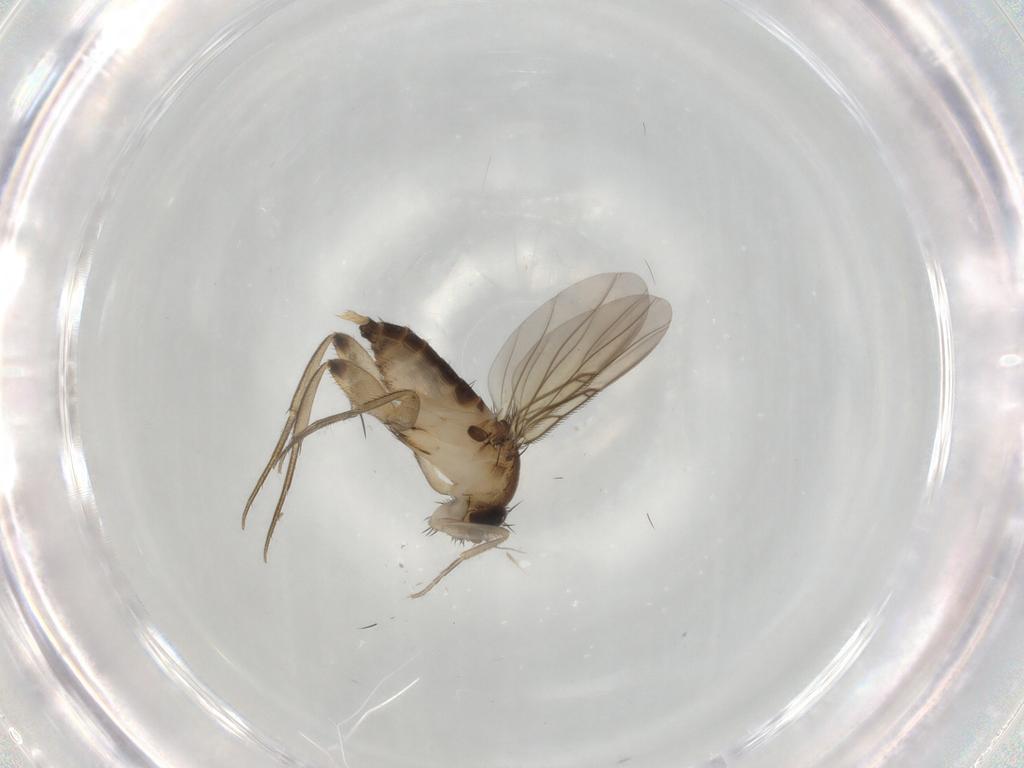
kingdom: Animalia
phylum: Arthropoda
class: Insecta
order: Diptera
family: Phoridae
